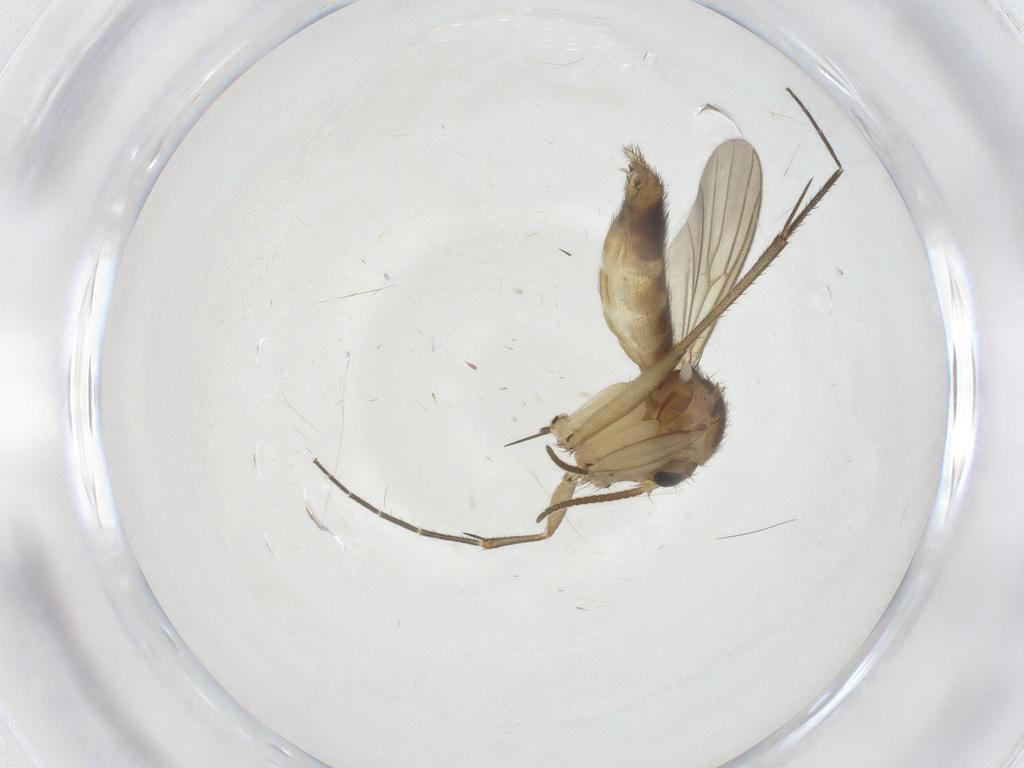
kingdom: Animalia
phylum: Arthropoda
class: Insecta
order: Diptera
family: Mycetophilidae
